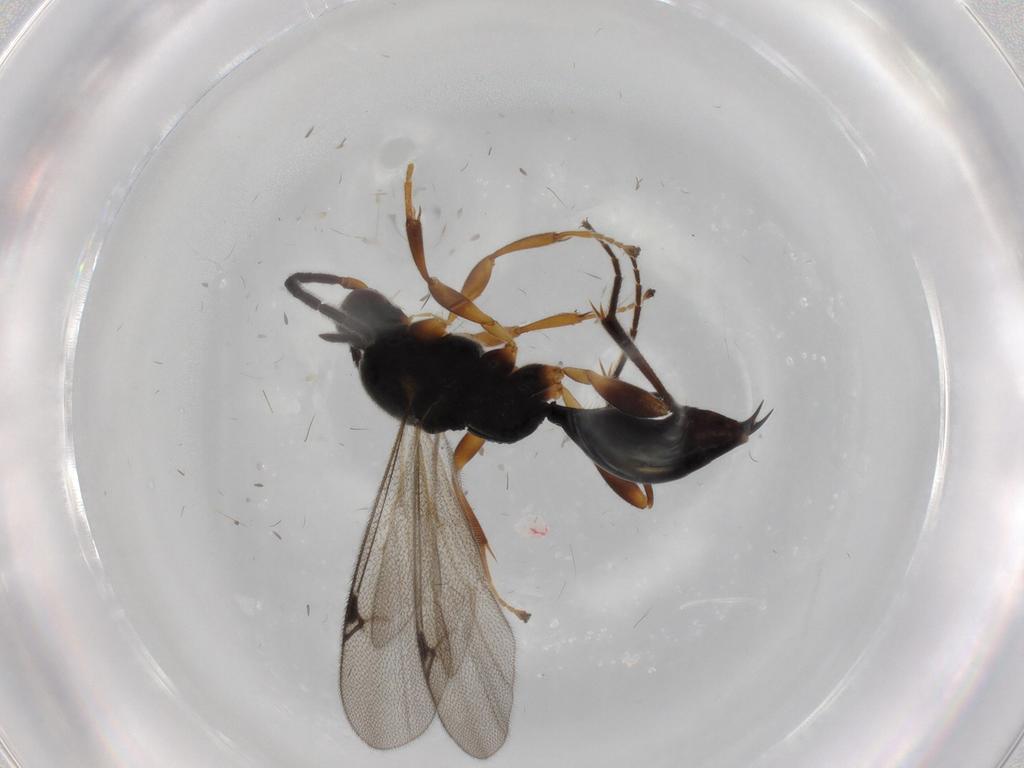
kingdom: Animalia
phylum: Arthropoda
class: Insecta
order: Hymenoptera
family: Proctotrupidae
